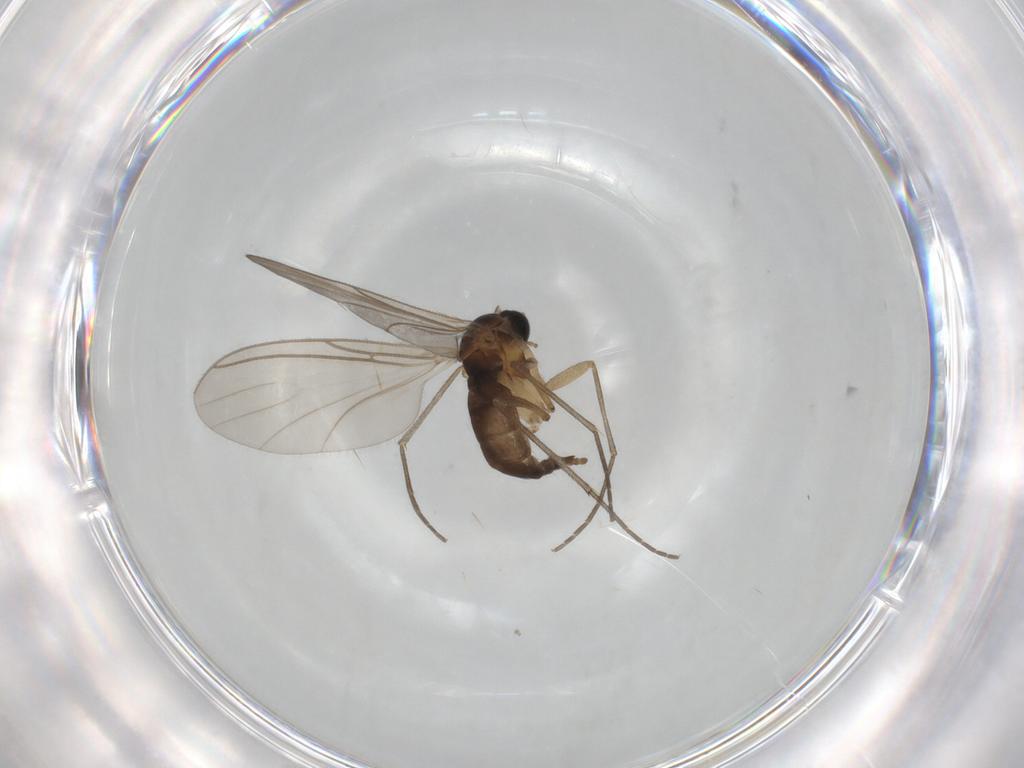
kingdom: Animalia
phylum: Arthropoda
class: Insecta
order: Diptera
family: Sciaridae
